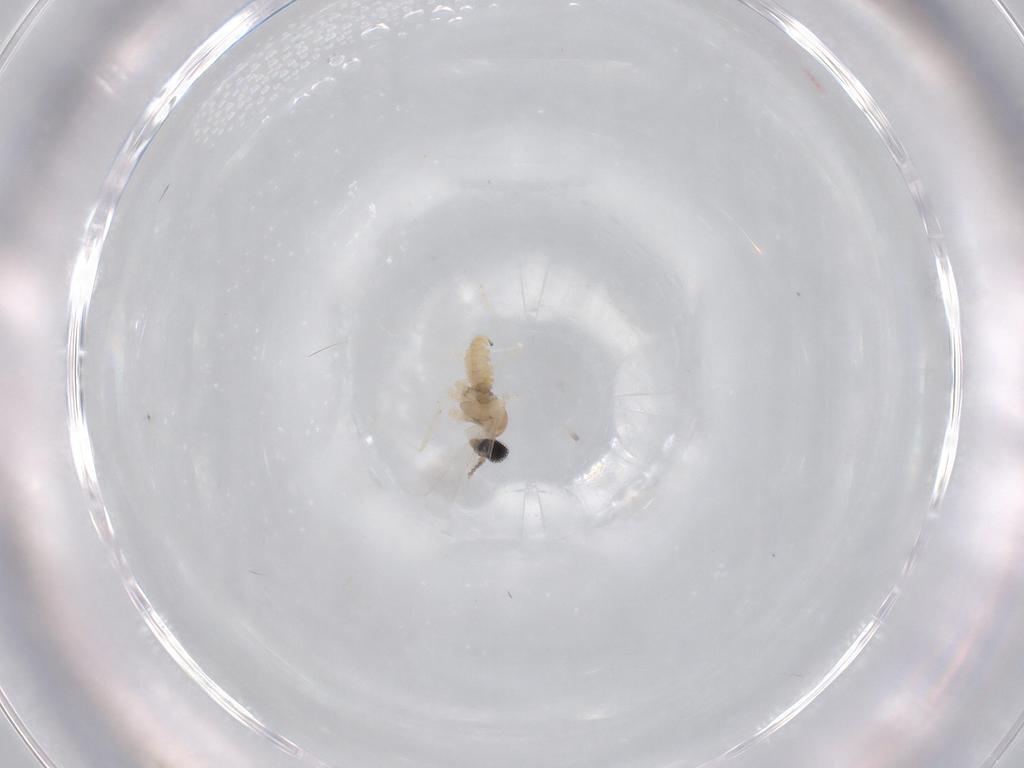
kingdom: Animalia
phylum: Arthropoda
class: Insecta
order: Diptera
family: Cecidomyiidae
